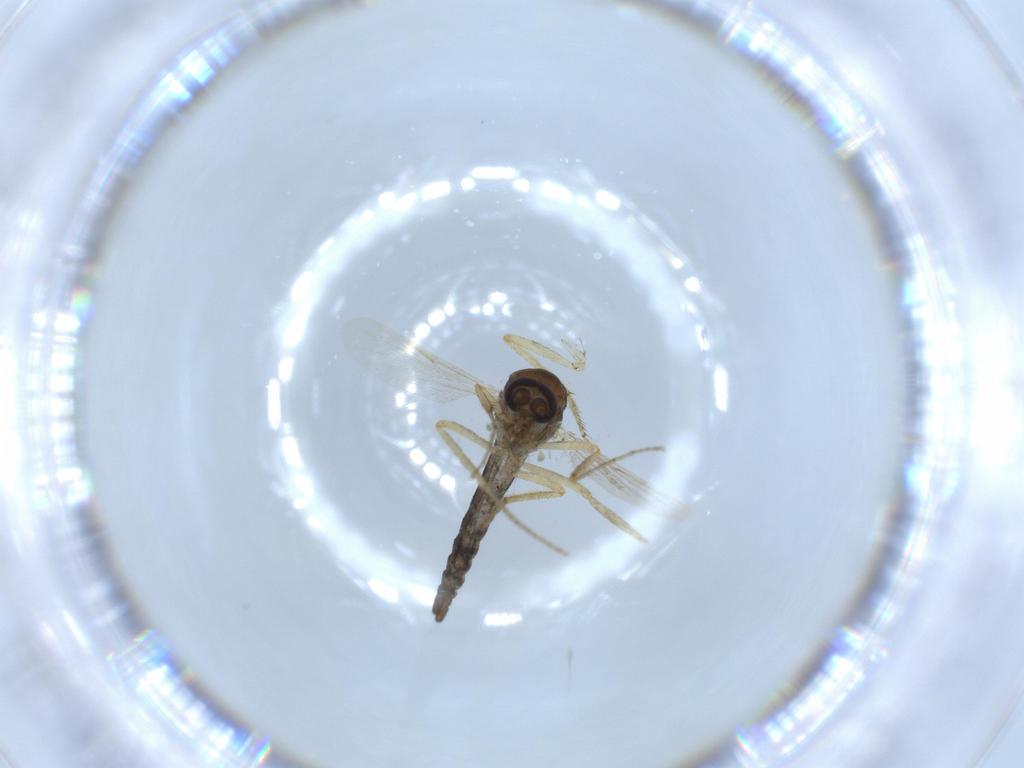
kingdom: Animalia
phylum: Arthropoda
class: Insecta
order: Diptera
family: Ceratopogonidae
